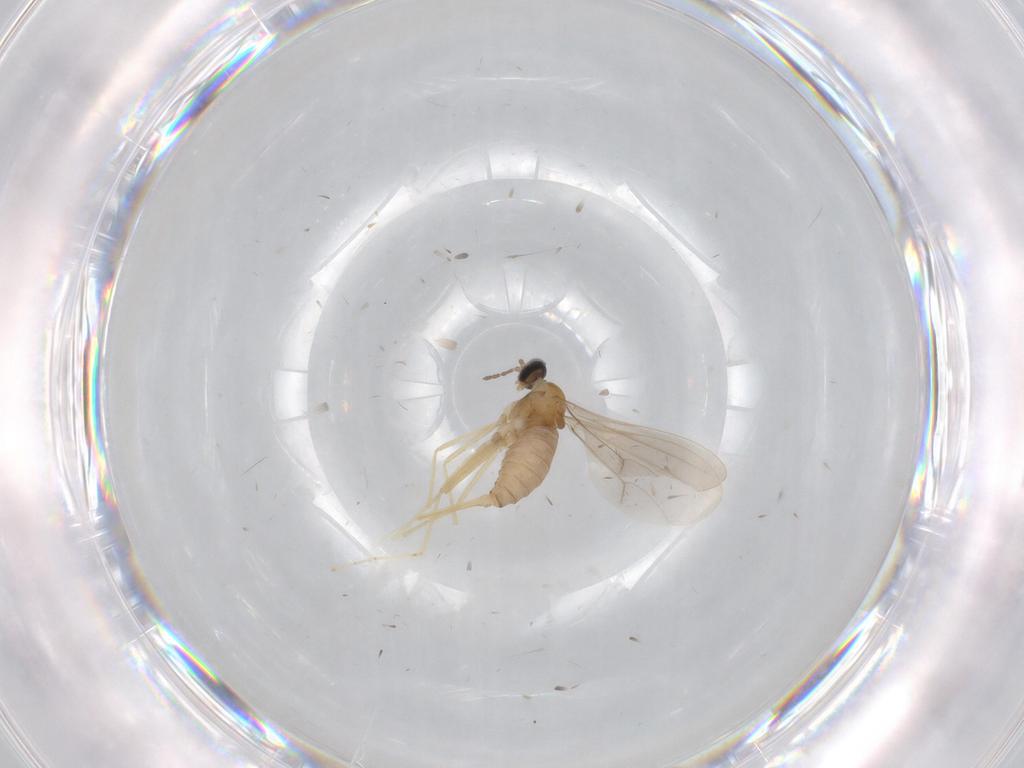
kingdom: Animalia
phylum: Arthropoda
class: Insecta
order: Diptera
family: Cecidomyiidae
